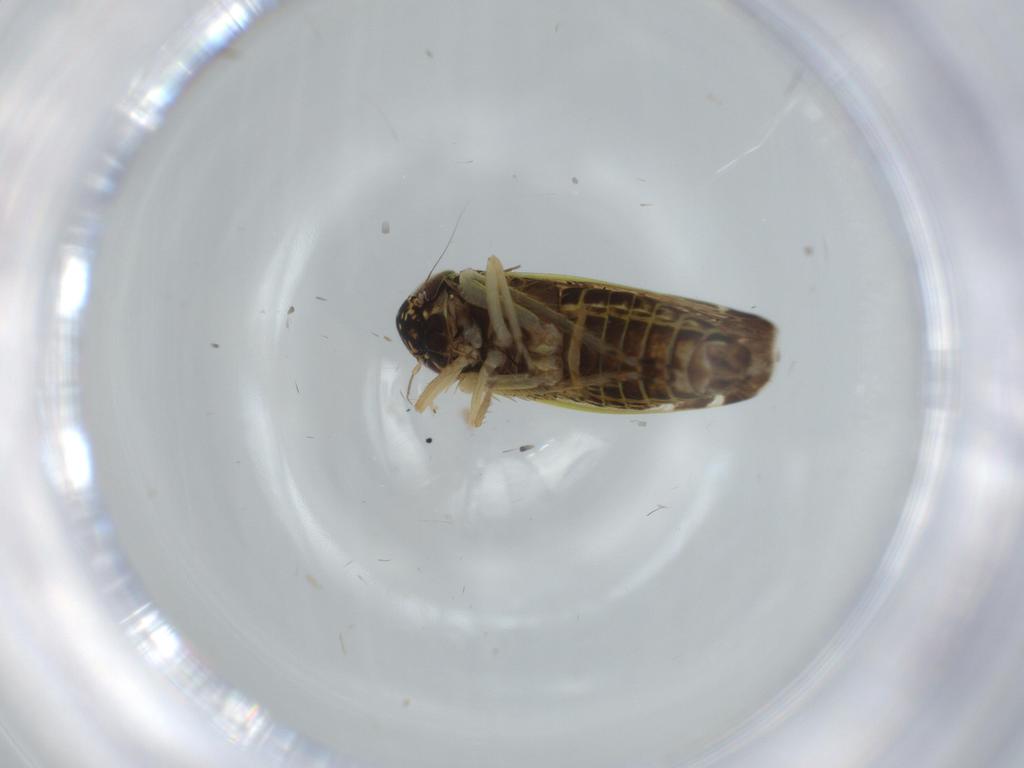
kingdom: Animalia
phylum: Arthropoda
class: Insecta
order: Hemiptera
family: Cicadellidae
